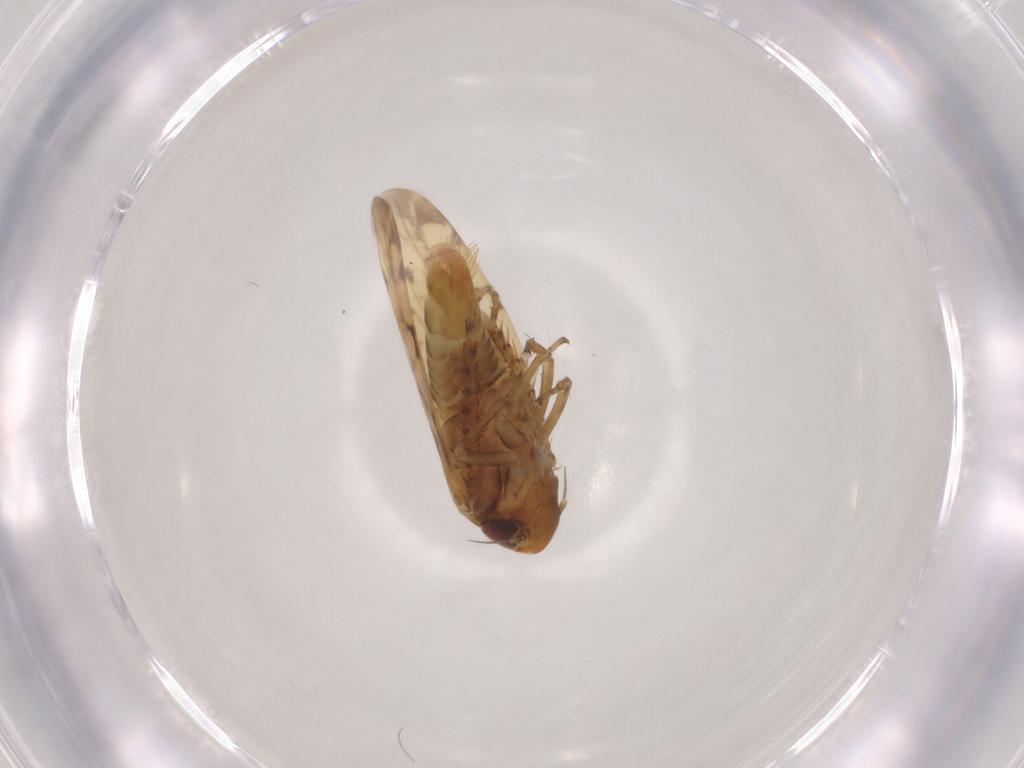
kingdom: Animalia
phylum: Arthropoda
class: Insecta
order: Hemiptera
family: Cicadellidae
